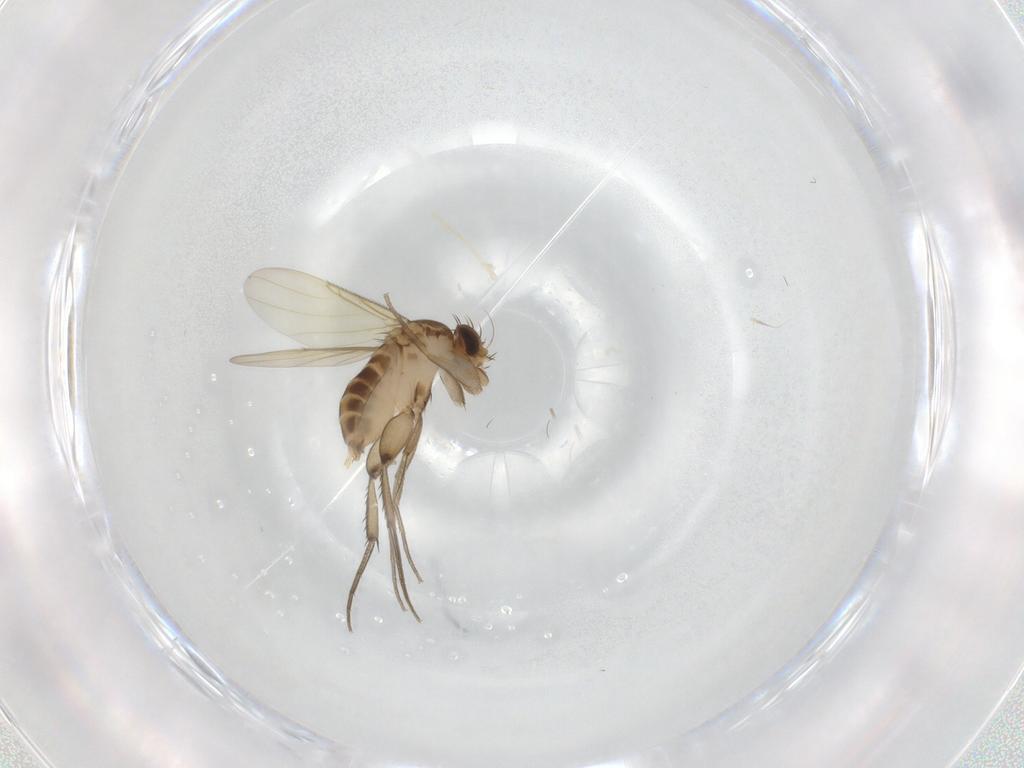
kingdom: Animalia
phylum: Arthropoda
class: Insecta
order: Diptera
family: Phoridae
